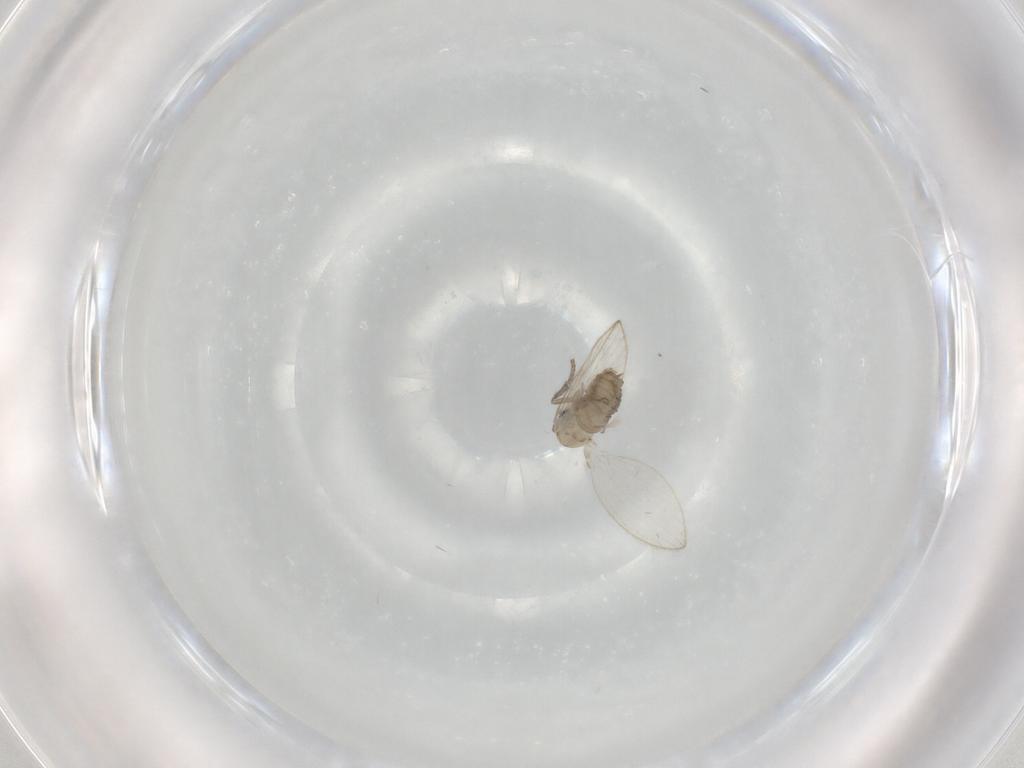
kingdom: Animalia
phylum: Arthropoda
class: Insecta
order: Diptera
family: Psychodidae
